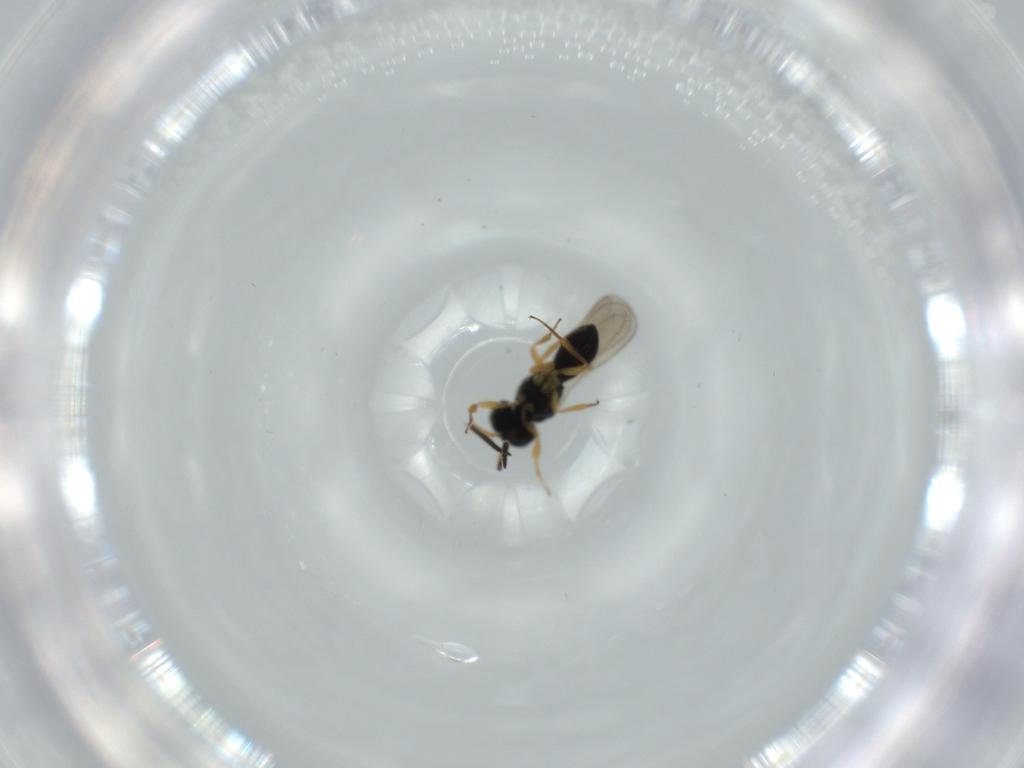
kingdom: Animalia
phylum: Arthropoda
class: Insecta
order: Hymenoptera
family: Scelionidae
